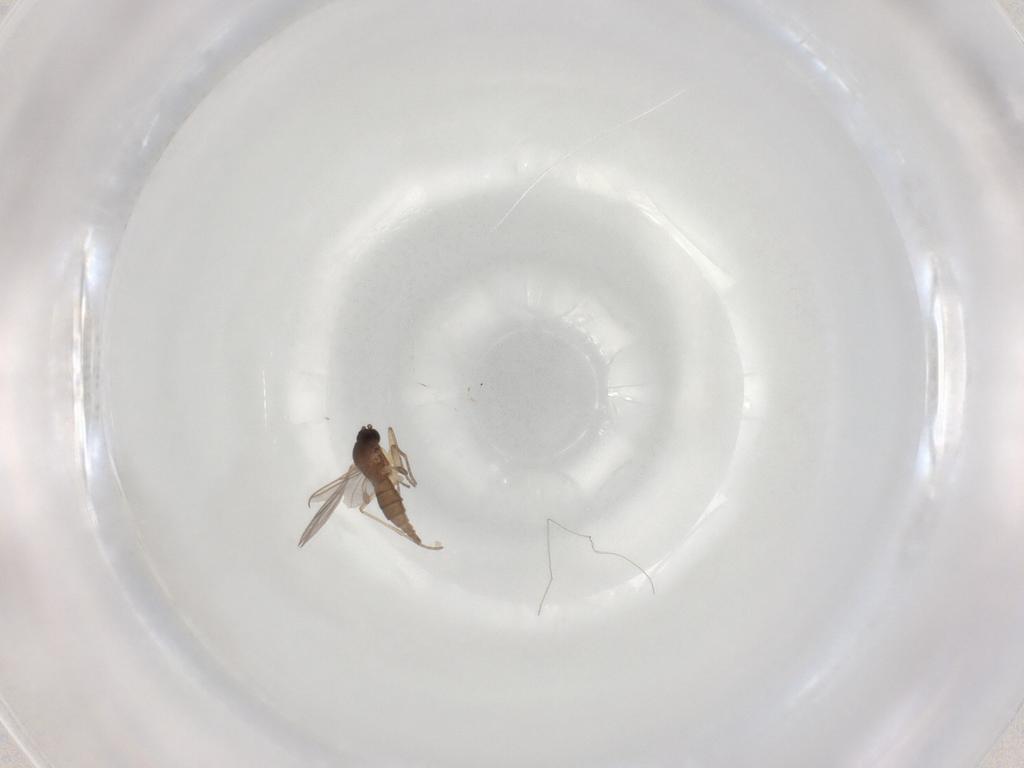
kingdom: Animalia
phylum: Arthropoda
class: Insecta
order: Diptera
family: Sciaridae
